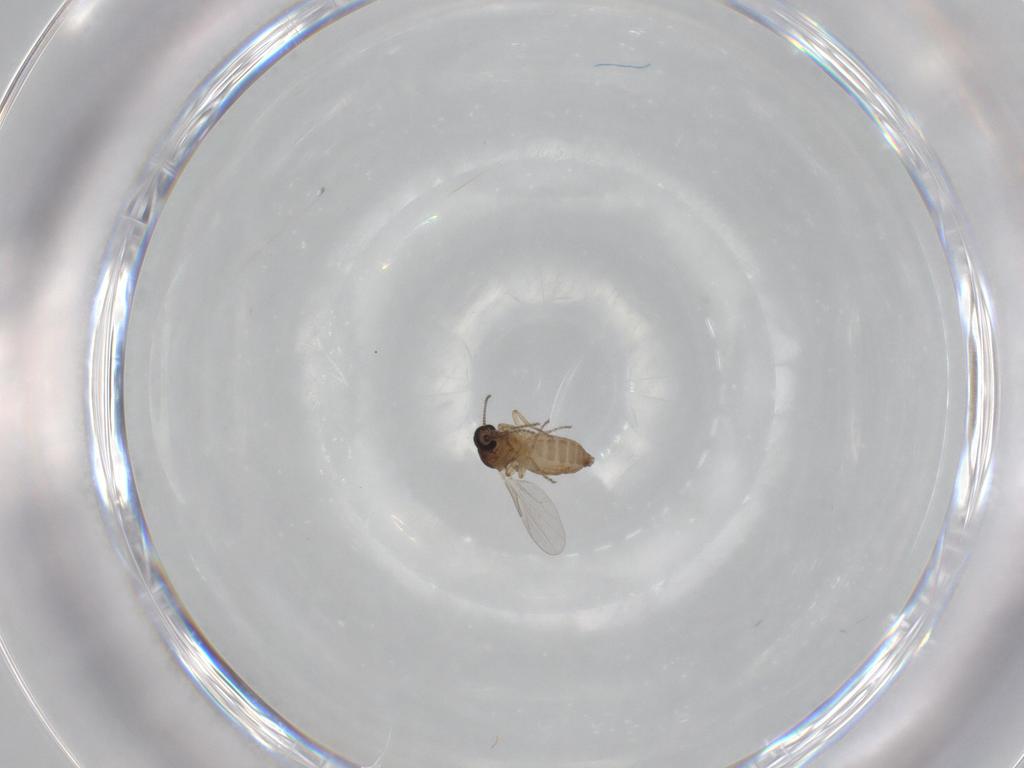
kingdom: Animalia
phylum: Arthropoda
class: Insecta
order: Diptera
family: Ceratopogonidae
